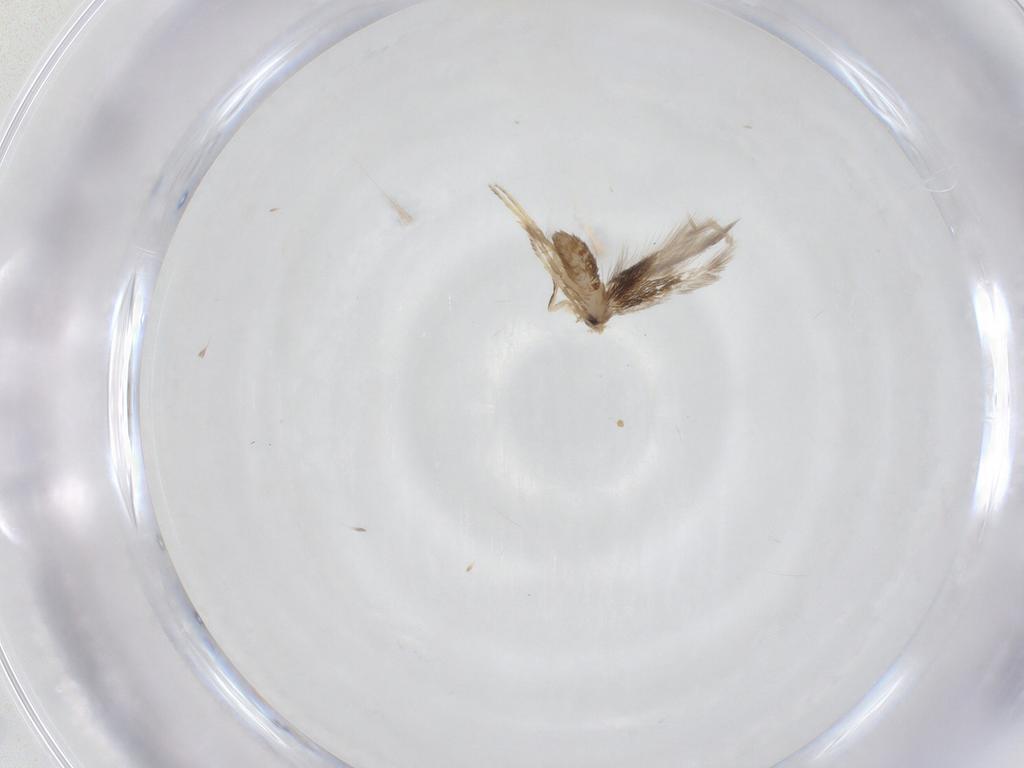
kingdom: Animalia
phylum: Arthropoda
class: Insecta
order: Lepidoptera
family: Nepticulidae
